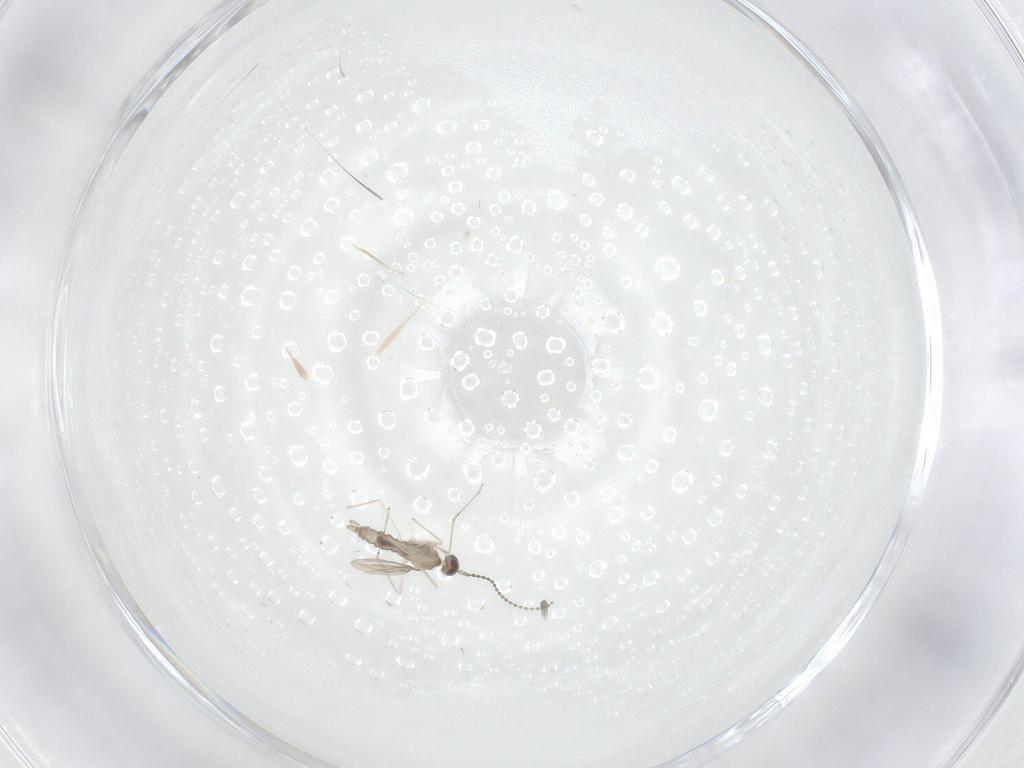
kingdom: Animalia
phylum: Arthropoda
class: Insecta
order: Diptera
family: Cecidomyiidae
